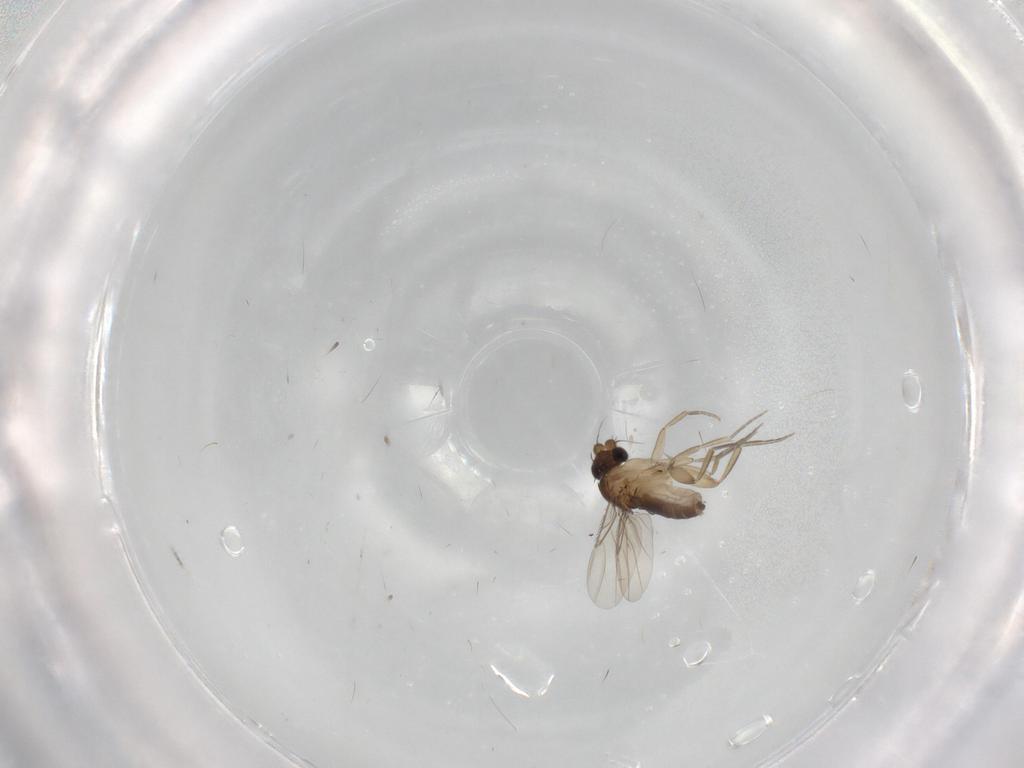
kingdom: Animalia
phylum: Arthropoda
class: Insecta
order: Diptera
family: Phoridae
